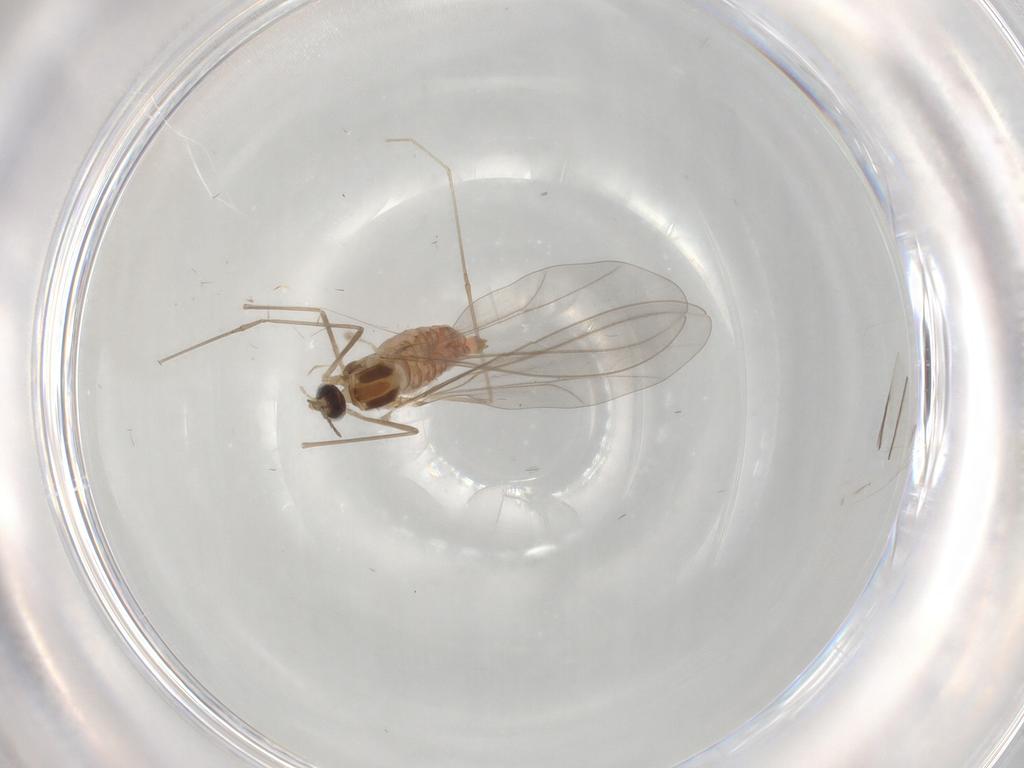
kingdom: Animalia
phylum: Arthropoda
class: Insecta
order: Diptera
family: Cecidomyiidae
